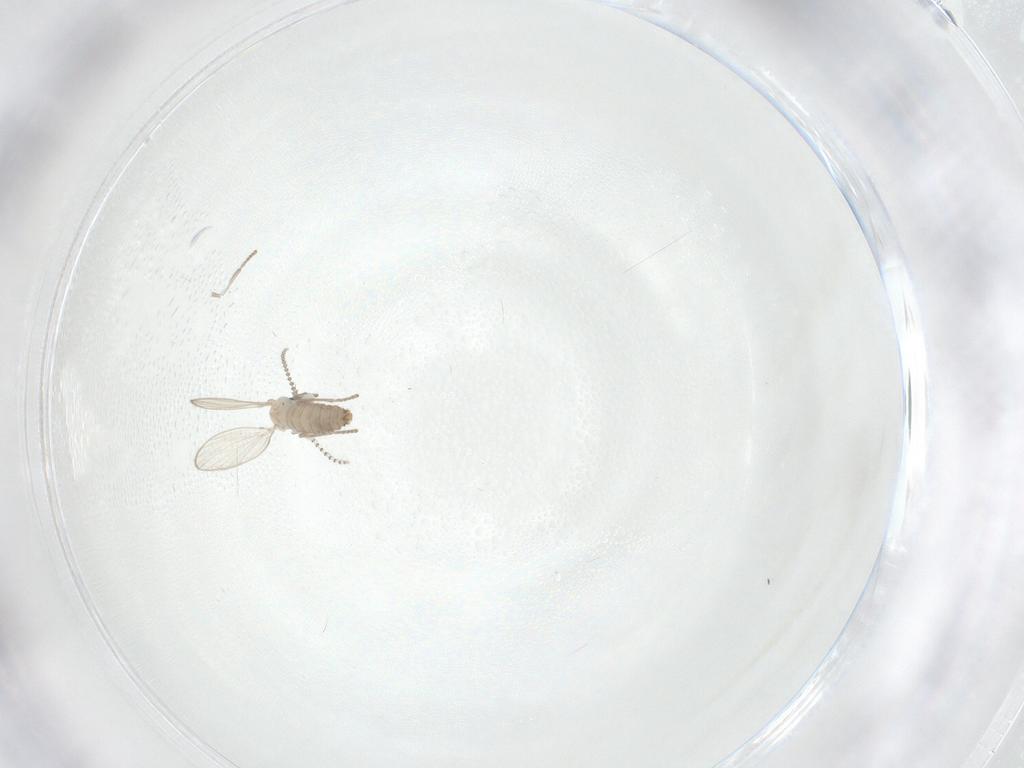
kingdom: Animalia
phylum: Arthropoda
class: Insecta
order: Diptera
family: Psychodidae
